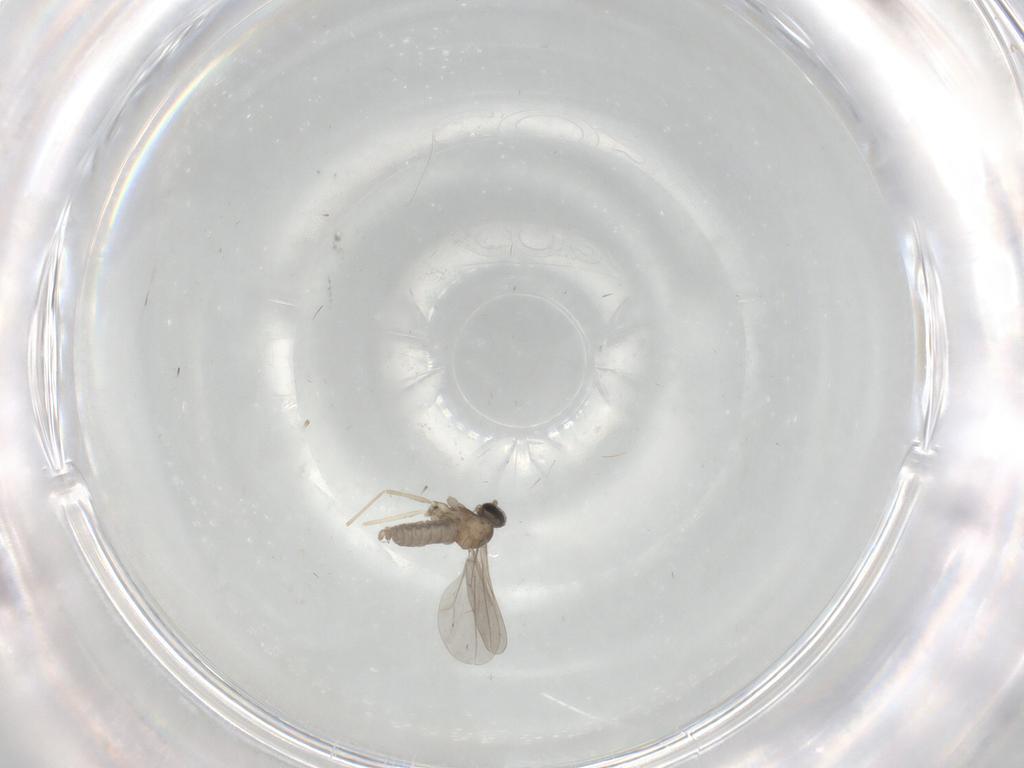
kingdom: Animalia
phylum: Arthropoda
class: Insecta
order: Diptera
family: Cecidomyiidae
